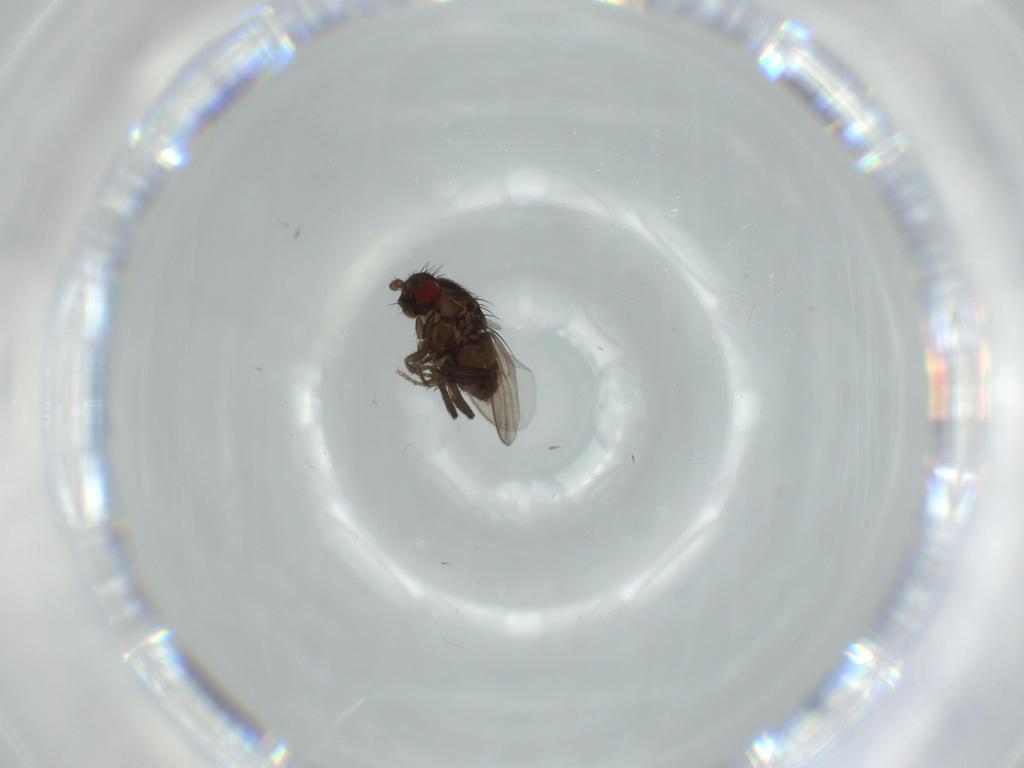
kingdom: Animalia
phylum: Arthropoda
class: Insecta
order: Diptera
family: Sphaeroceridae
